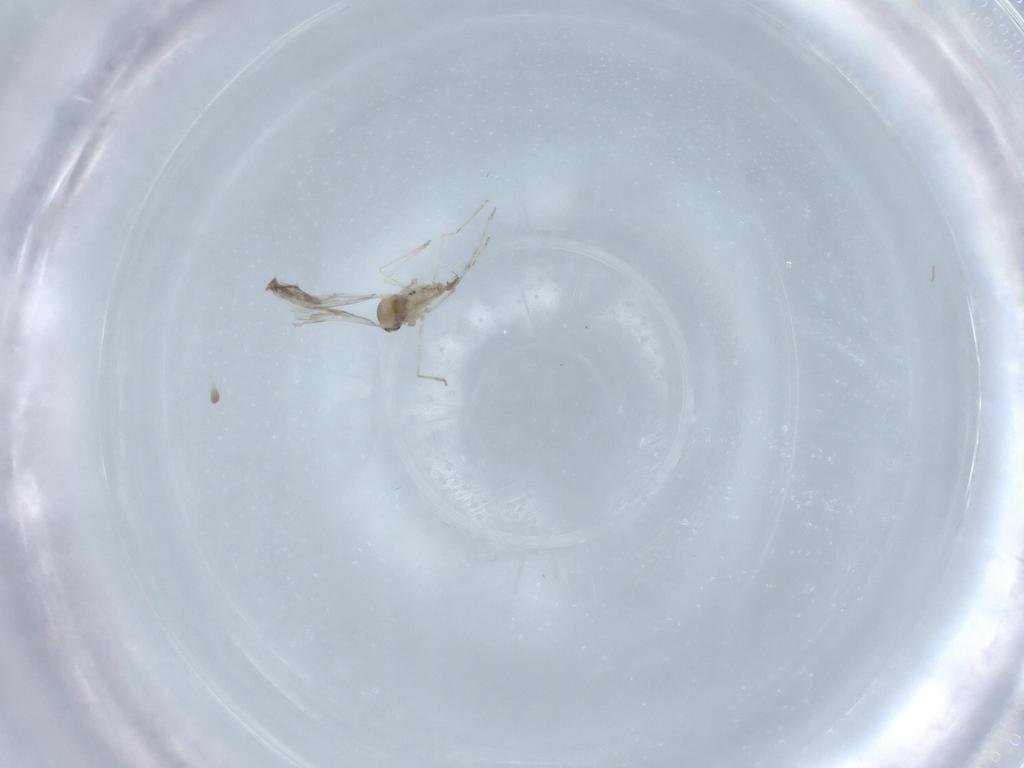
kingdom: Animalia
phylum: Arthropoda
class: Insecta
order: Diptera
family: Cecidomyiidae
